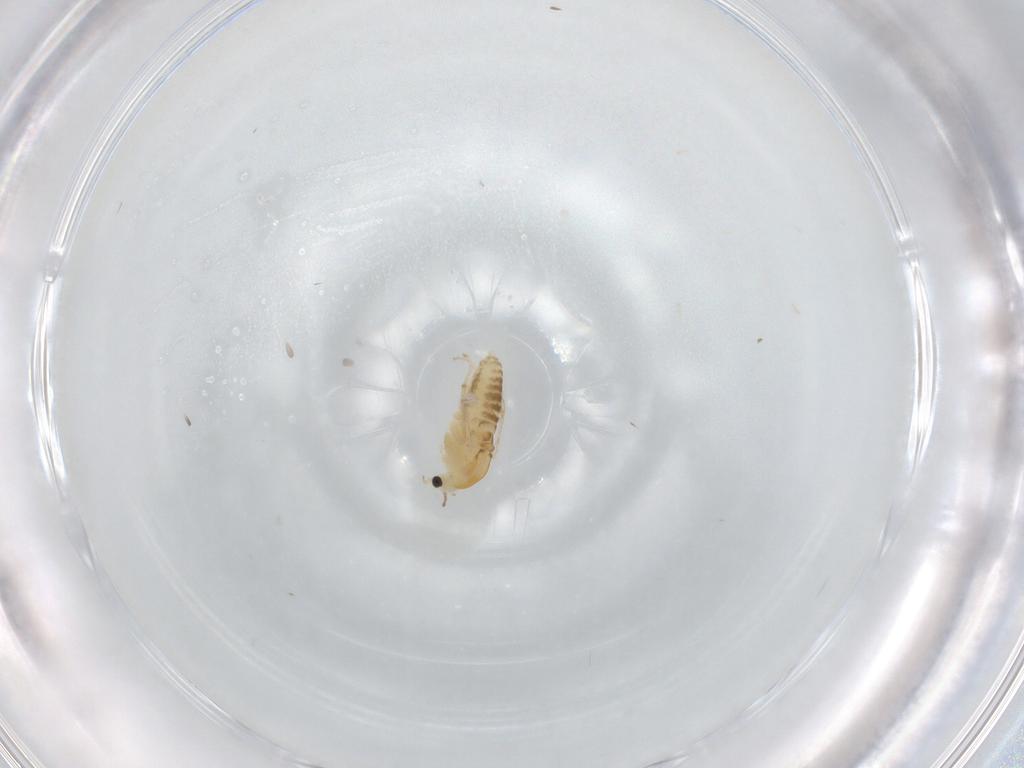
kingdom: Animalia
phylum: Arthropoda
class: Insecta
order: Diptera
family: Chironomidae
